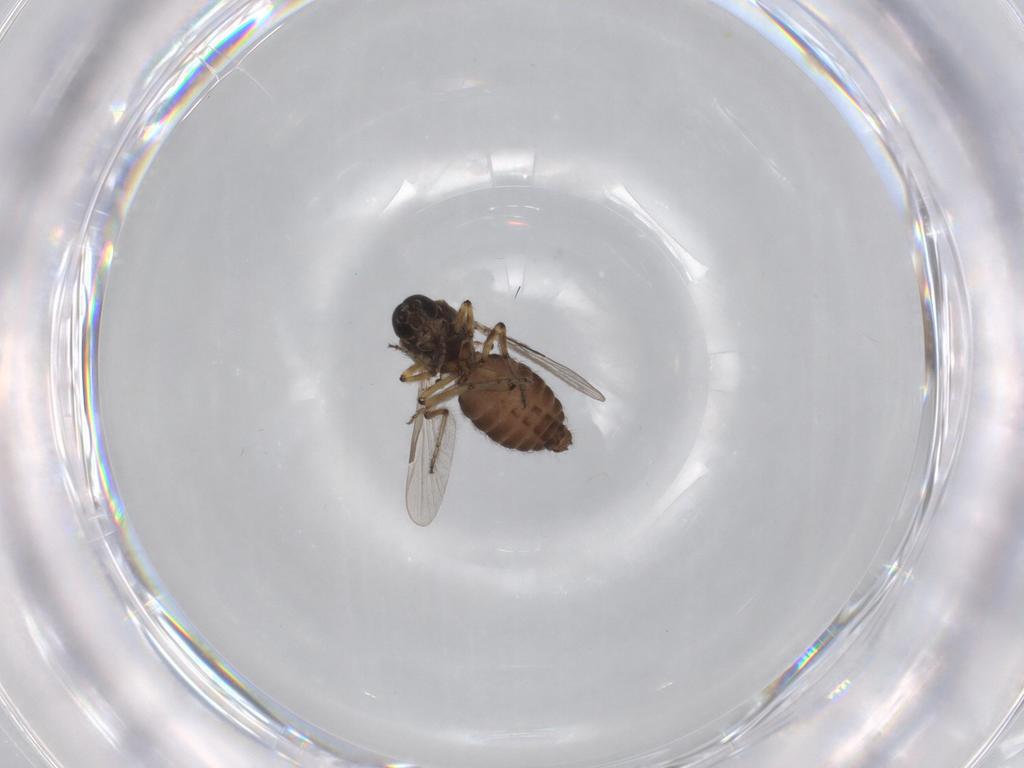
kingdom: Animalia
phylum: Arthropoda
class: Insecta
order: Diptera
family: Ceratopogonidae
